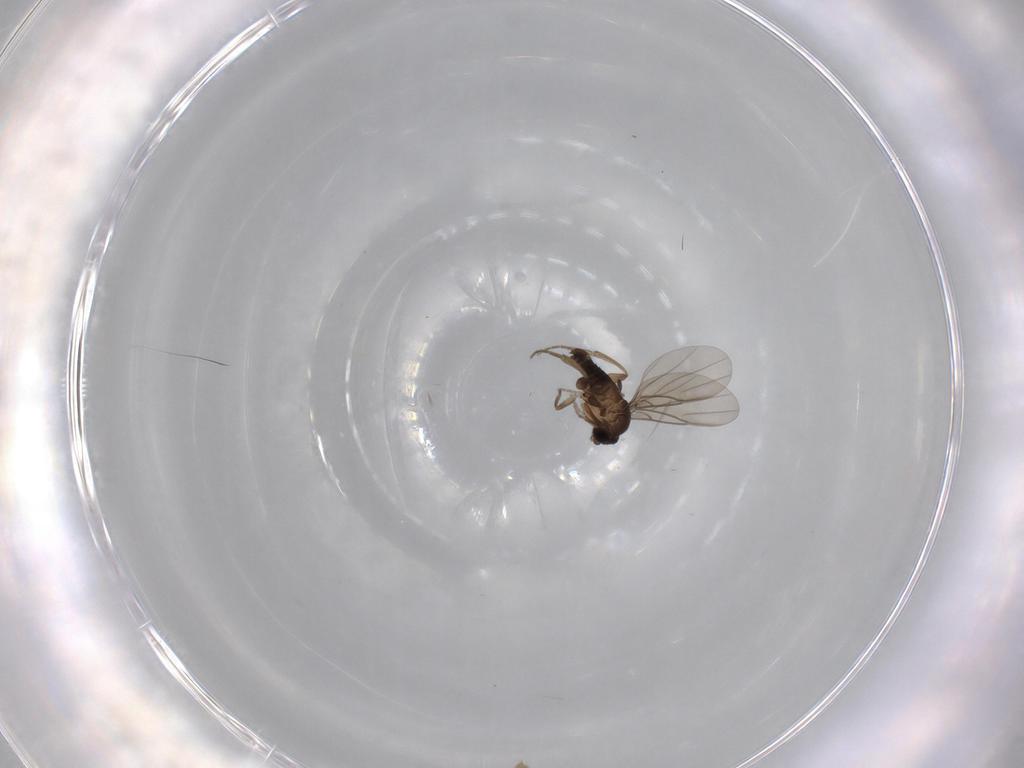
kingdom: Animalia
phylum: Arthropoda
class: Insecta
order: Diptera
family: Phoridae
